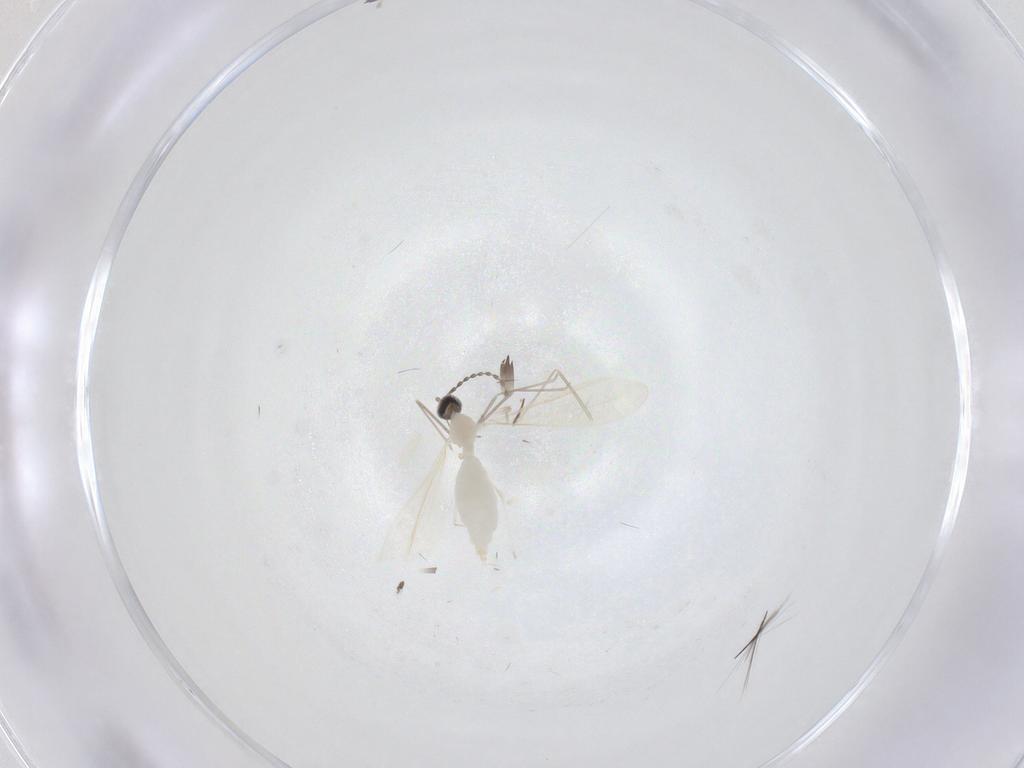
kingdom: Animalia
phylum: Arthropoda
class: Insecta
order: Diptera
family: Cecidomyiidae
